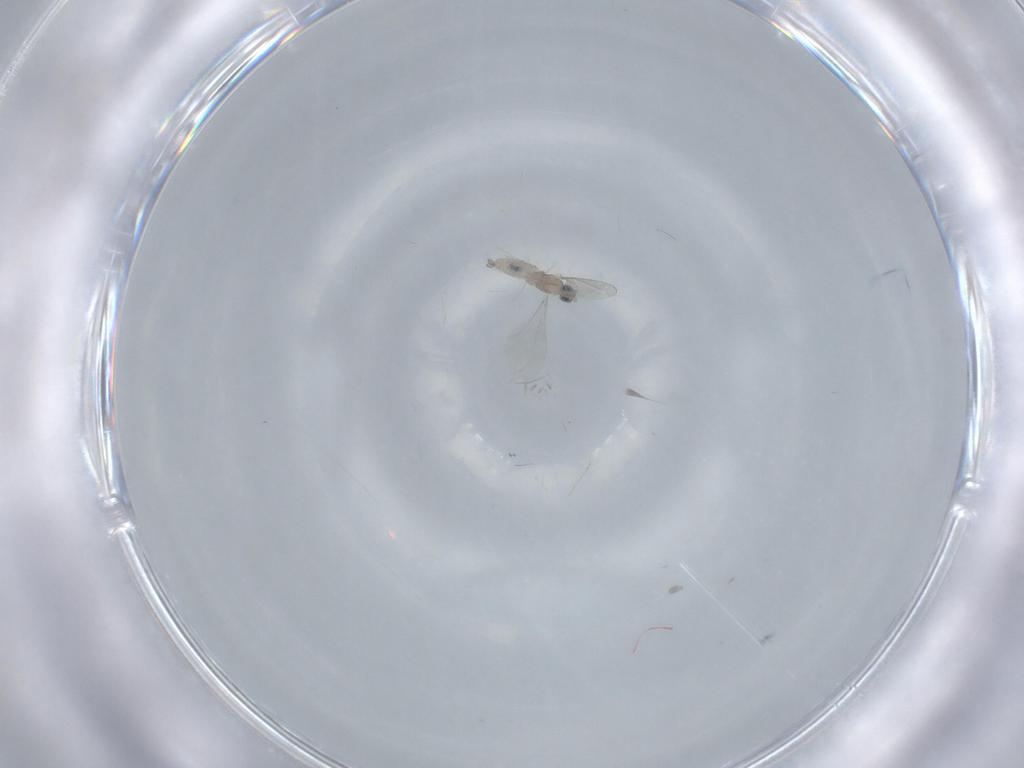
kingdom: Animalia
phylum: Arthropoda
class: Insecta
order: Diptera
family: Cecidomyiidae
